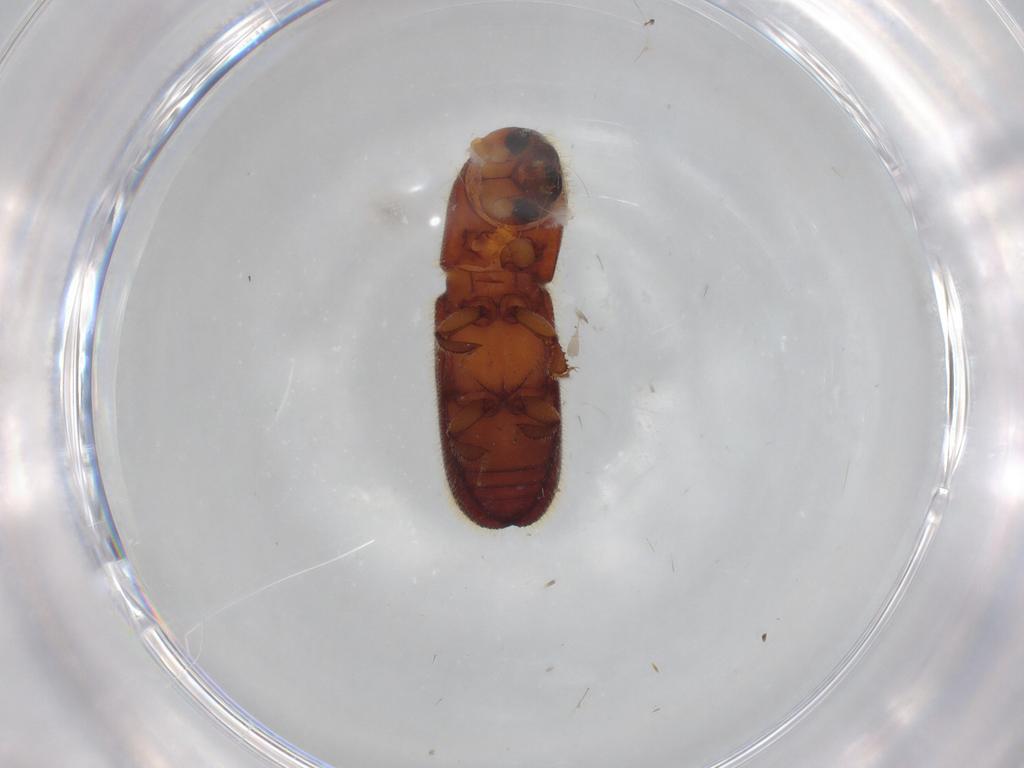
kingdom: Animalia
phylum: Arthropoda
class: Insecta
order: Coleoptera
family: Curculionidae
